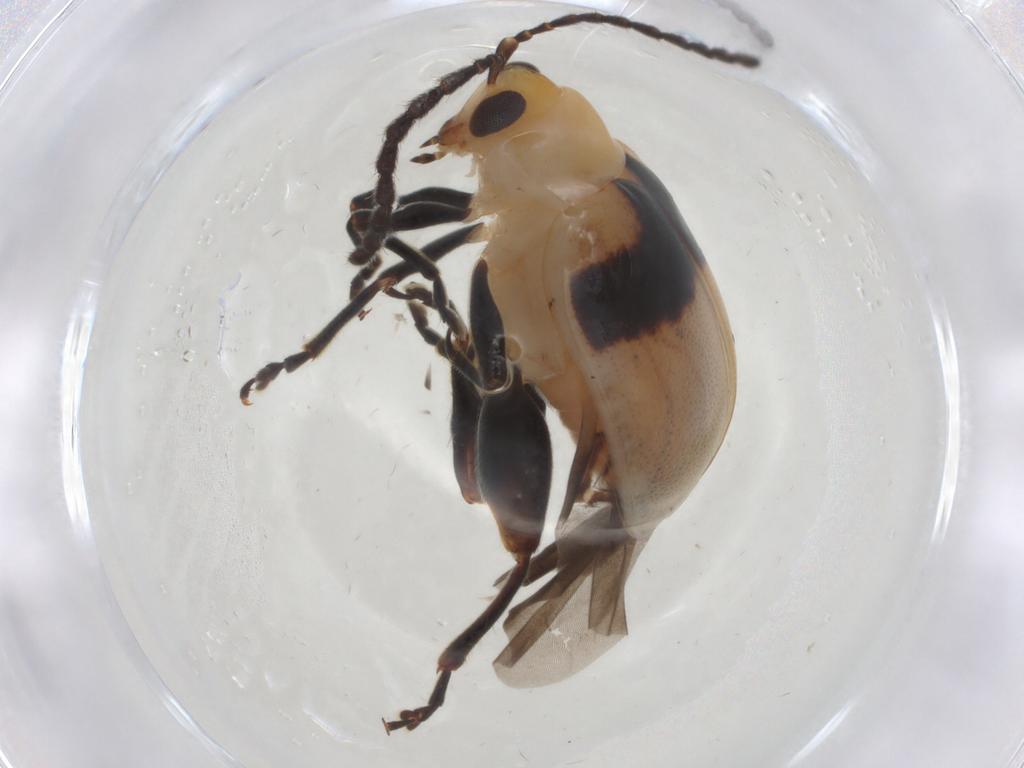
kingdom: Animalia
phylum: Arthropoda
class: Insecta
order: Coleoptera
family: Chrysomelidae
